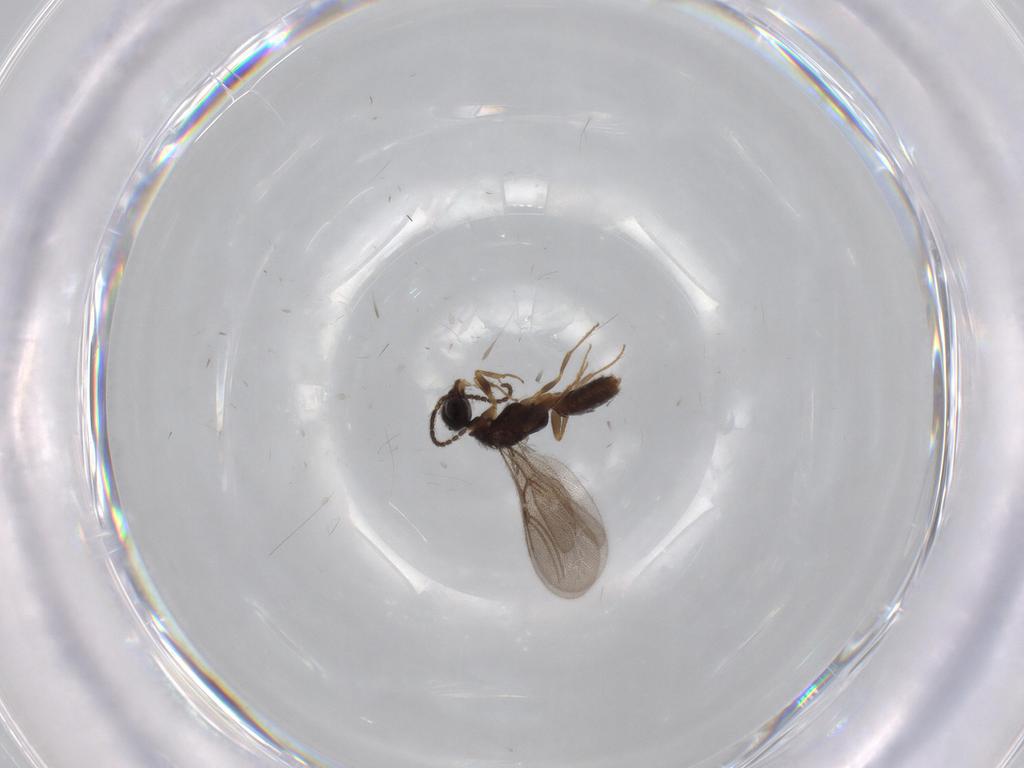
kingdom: Animalia
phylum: Arthropoda
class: Insecta
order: Hymenoptera
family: Bethylidae
